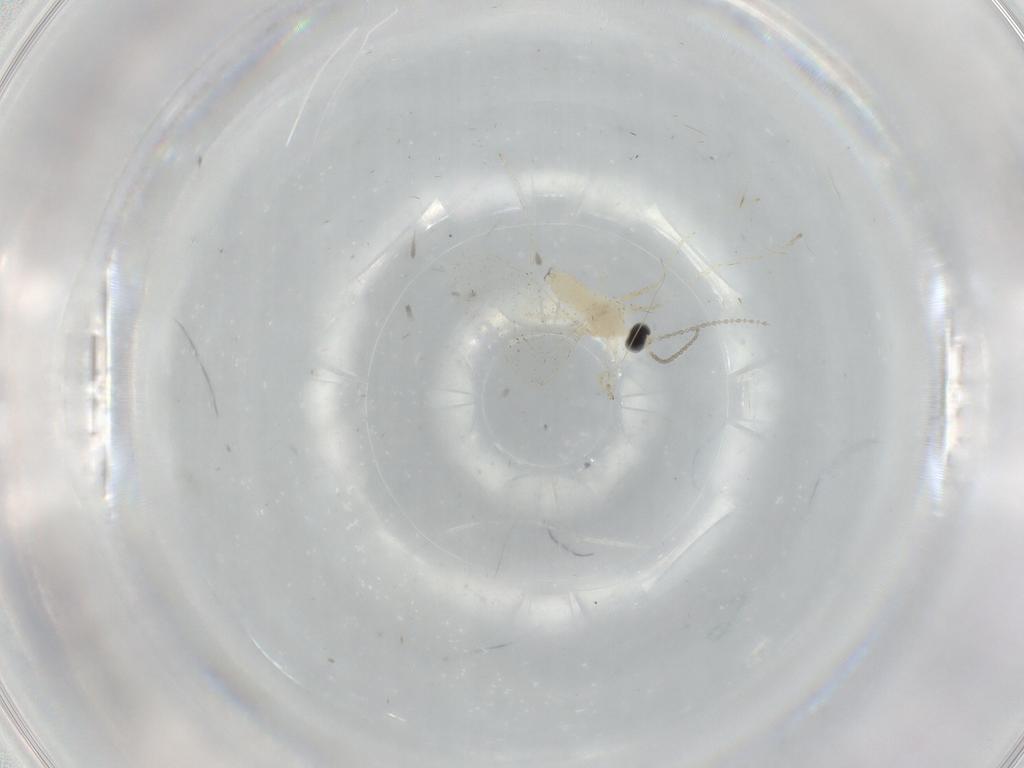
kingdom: Animalia
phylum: Arthropoda
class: Insecta
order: Diptera
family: Cecidomyiidae
